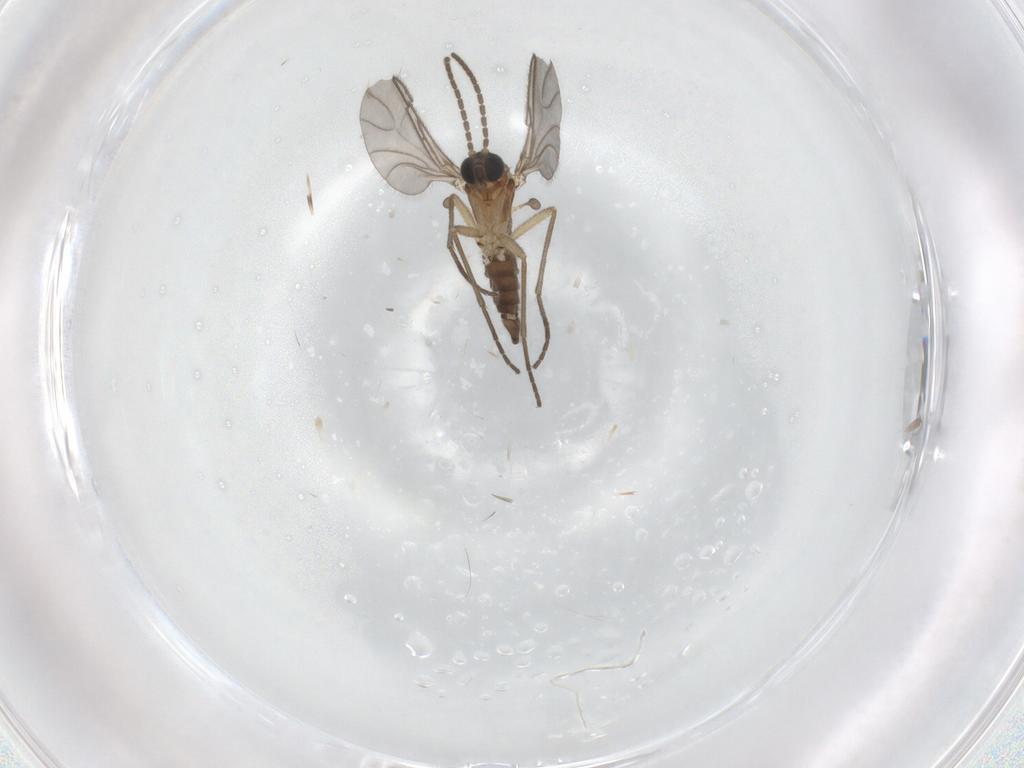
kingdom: Animalia
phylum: Arthropoda
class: Insecta
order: Diptera
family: Sciaridae
